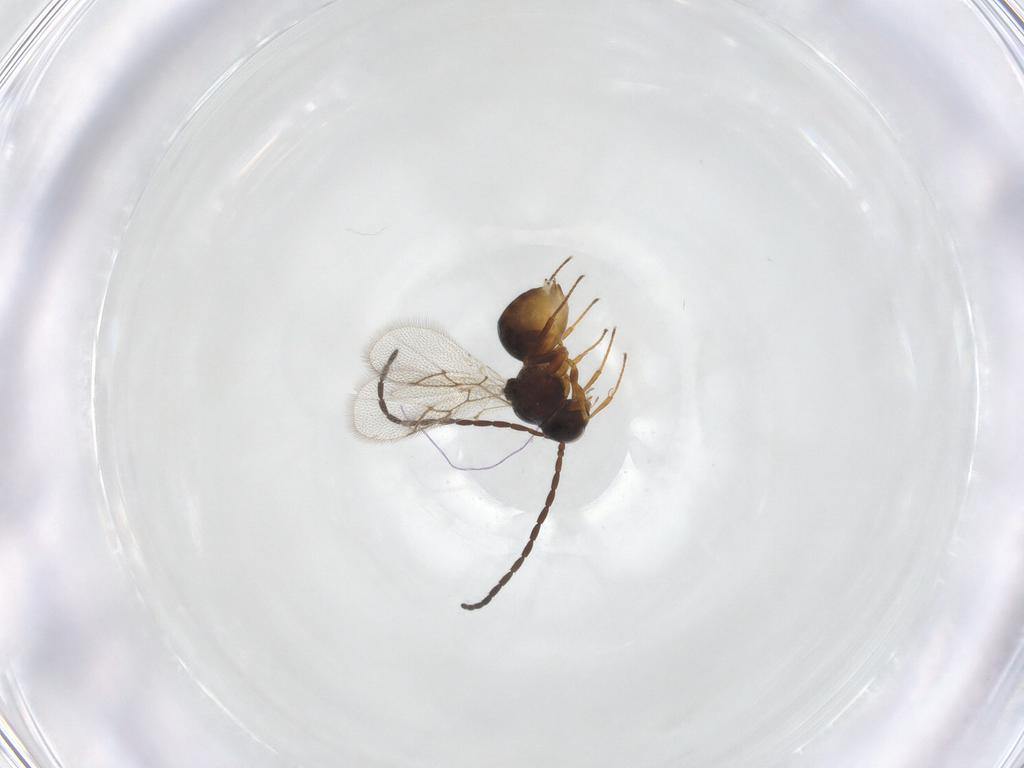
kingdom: Animalia
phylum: Arthropoda
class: Insecta
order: Hymenoptera
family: Figitidae
